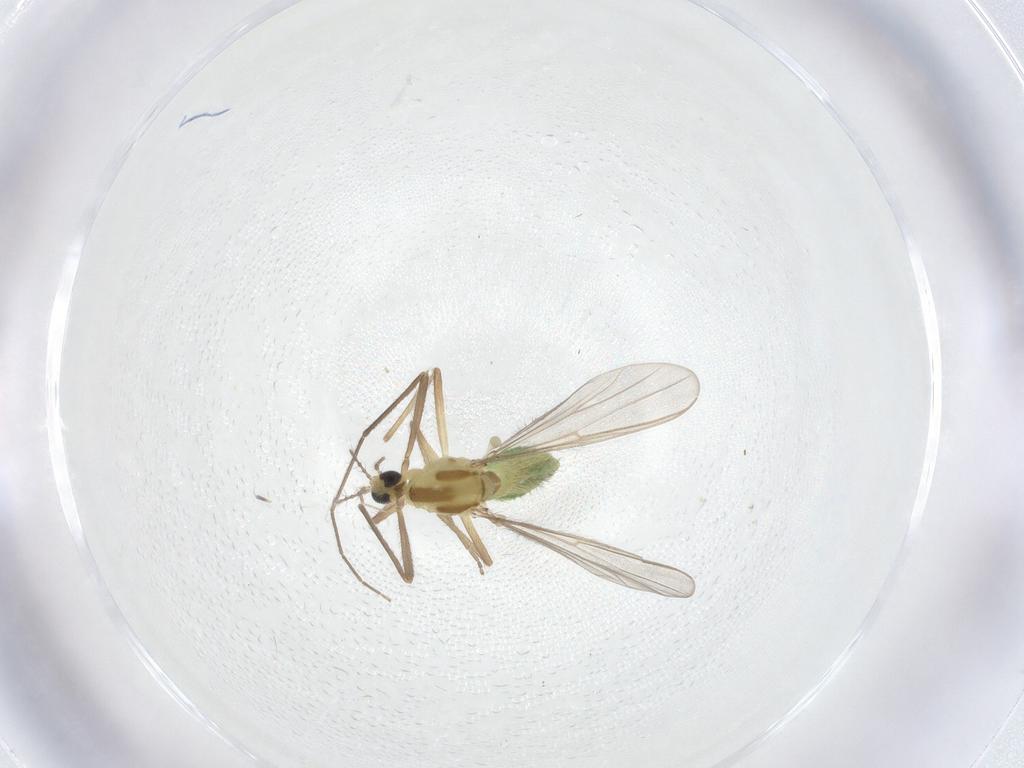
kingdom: Animalia
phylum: Arthropoda
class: Insecta
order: Diptera
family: Chironomidae
